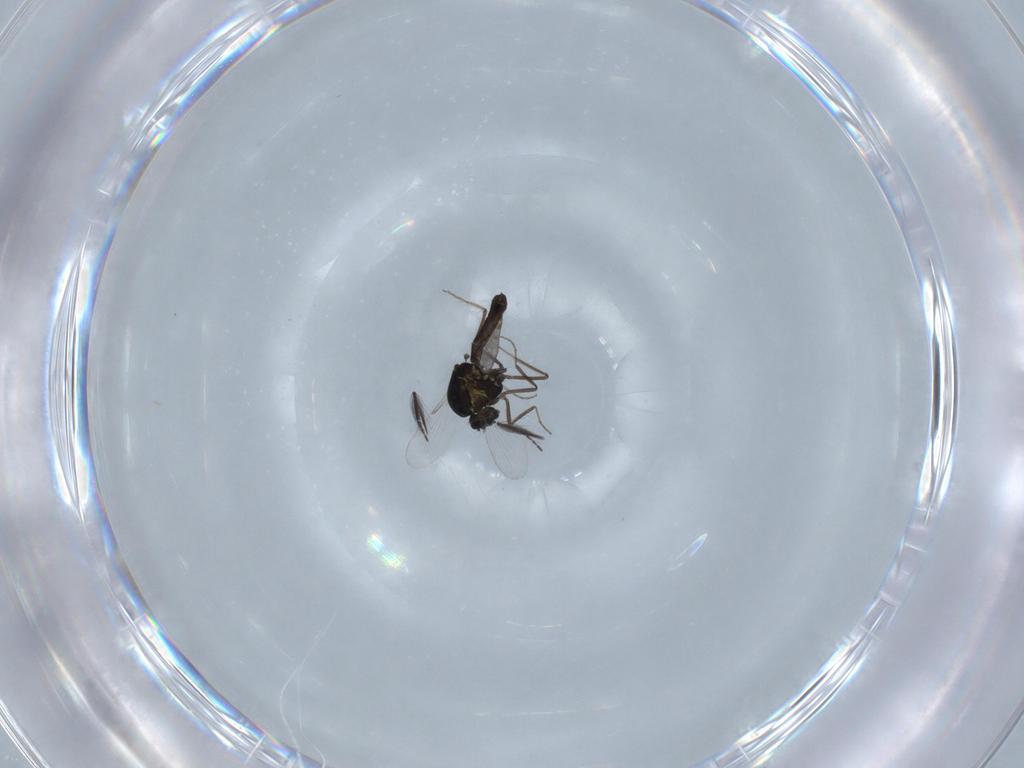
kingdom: Animalia
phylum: Arthropoda
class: Insecta
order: Diptera
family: Ceratopogonidae
